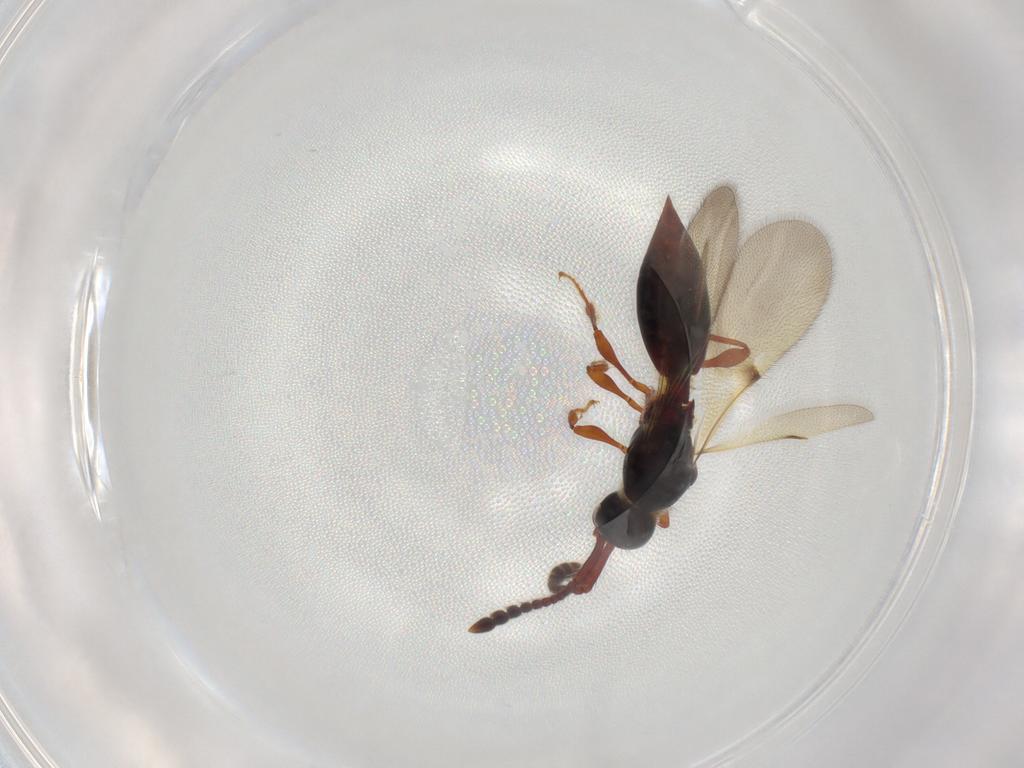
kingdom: Animalia
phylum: Arthropoda
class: Insecta
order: Hymenoptera
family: Diapriidae
